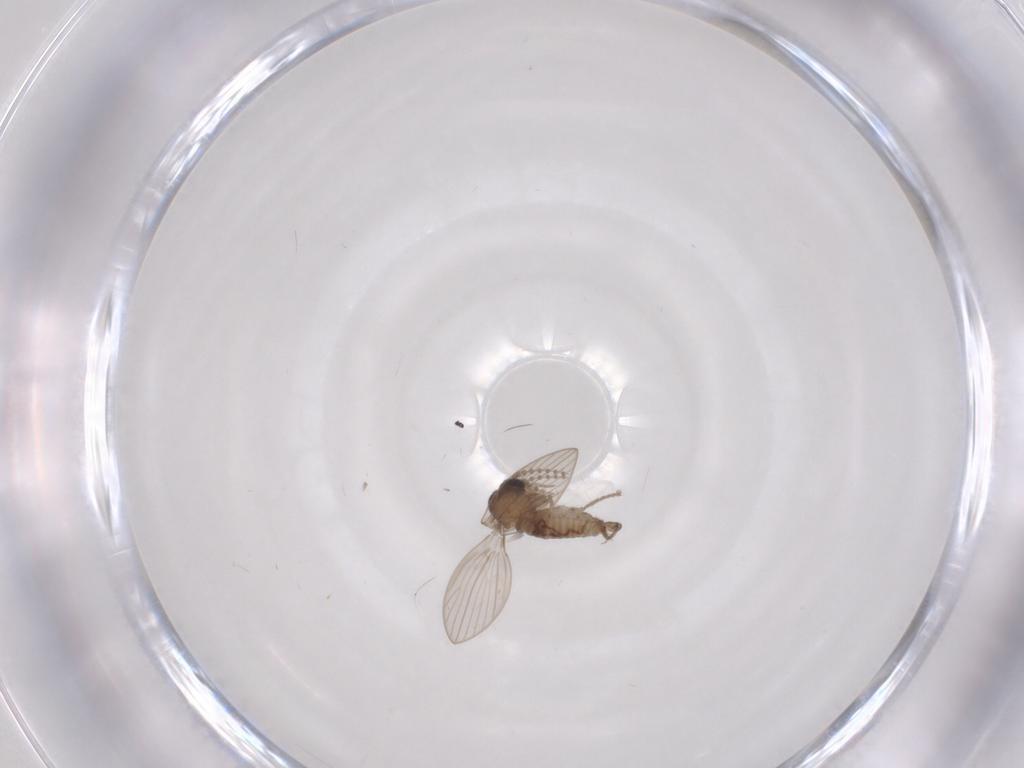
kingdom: Animalia
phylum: Arthropoda
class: Insecta
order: Diptera
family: Psychodidae
